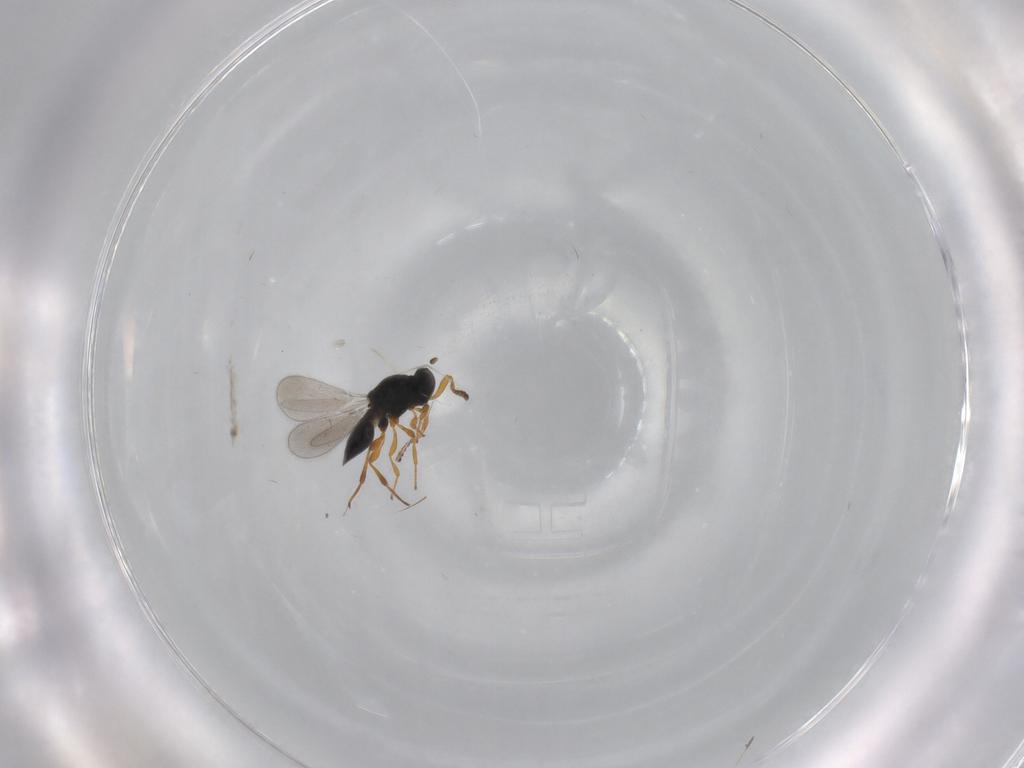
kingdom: Animalia
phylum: Arthropoda
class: Insecta
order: Hymenoptera
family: Platygastridae
